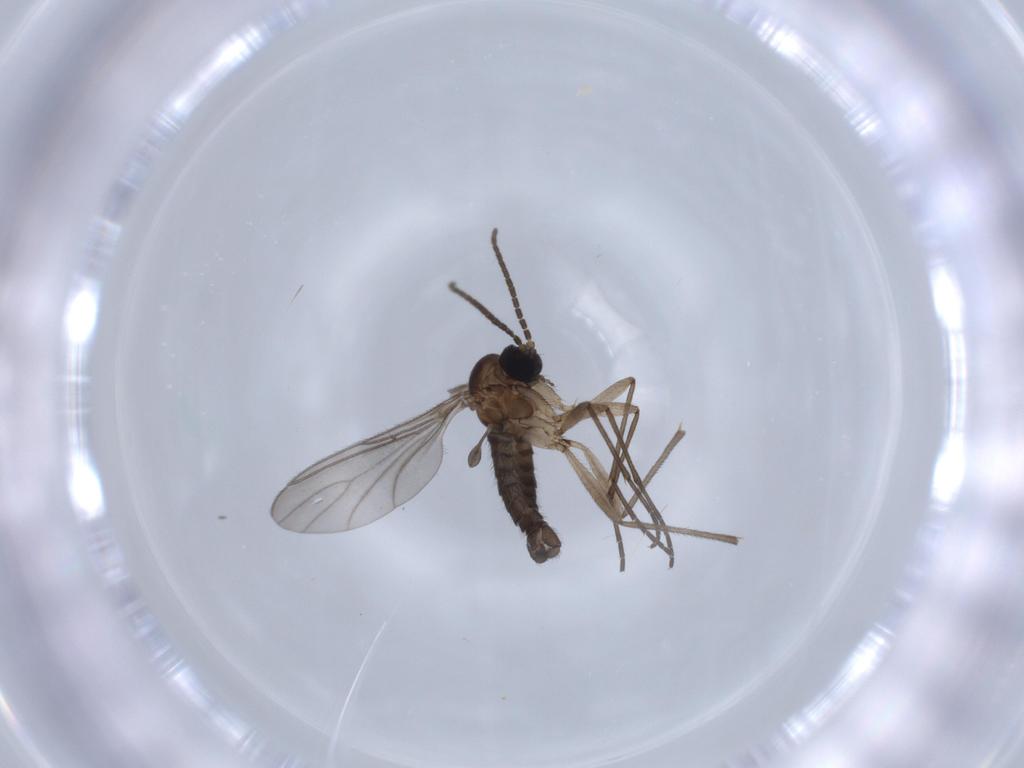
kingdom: Animalia
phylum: Arthropoda
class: Insecta
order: Diptera
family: Sciaridae
